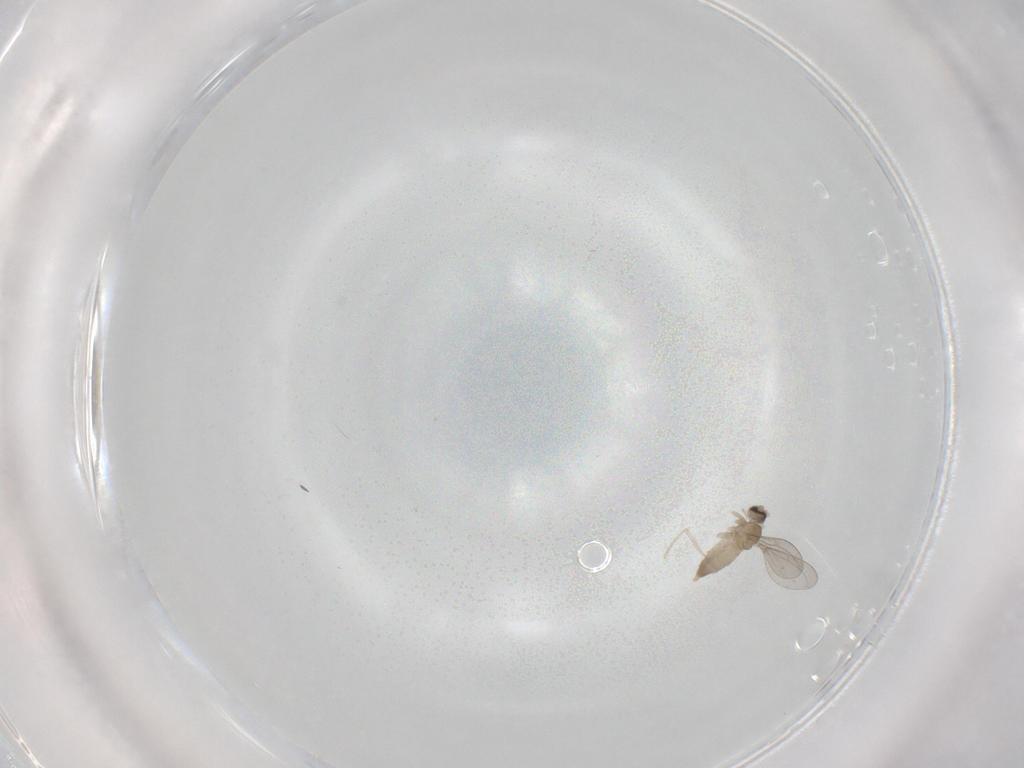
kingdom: Animalia
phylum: Arthropoda
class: Insecta
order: Diptera
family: Cecidomyiidae
